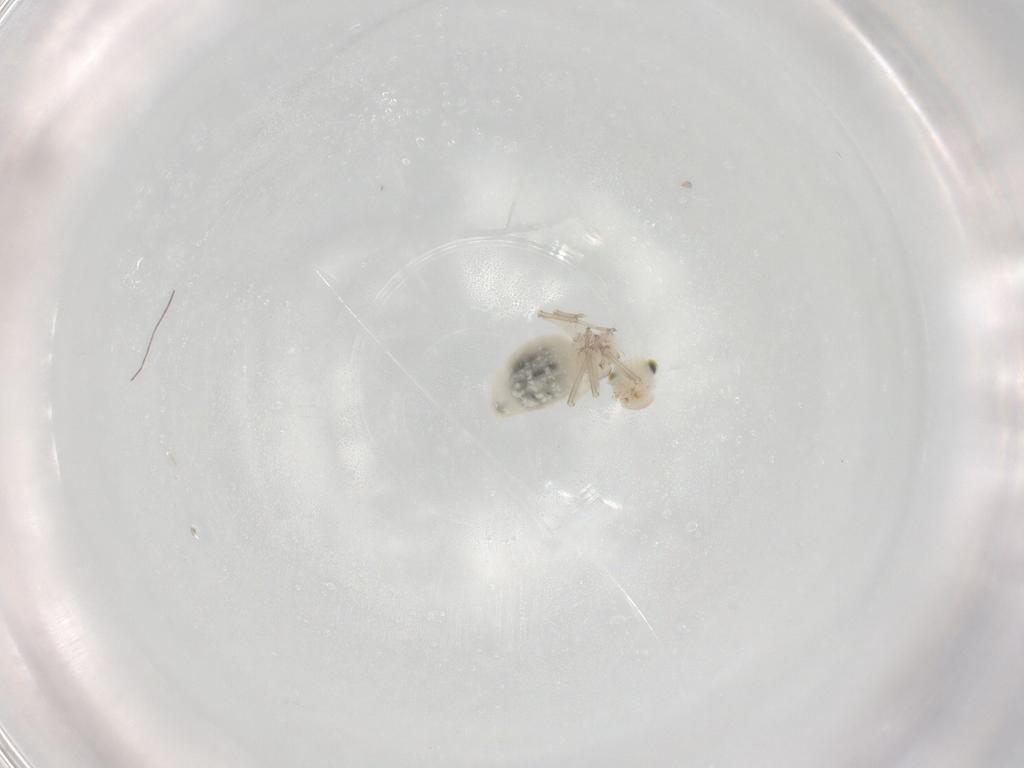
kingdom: Animalia
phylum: Arthropoda
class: Insecta
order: Psocodea
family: Caeciliusidae
